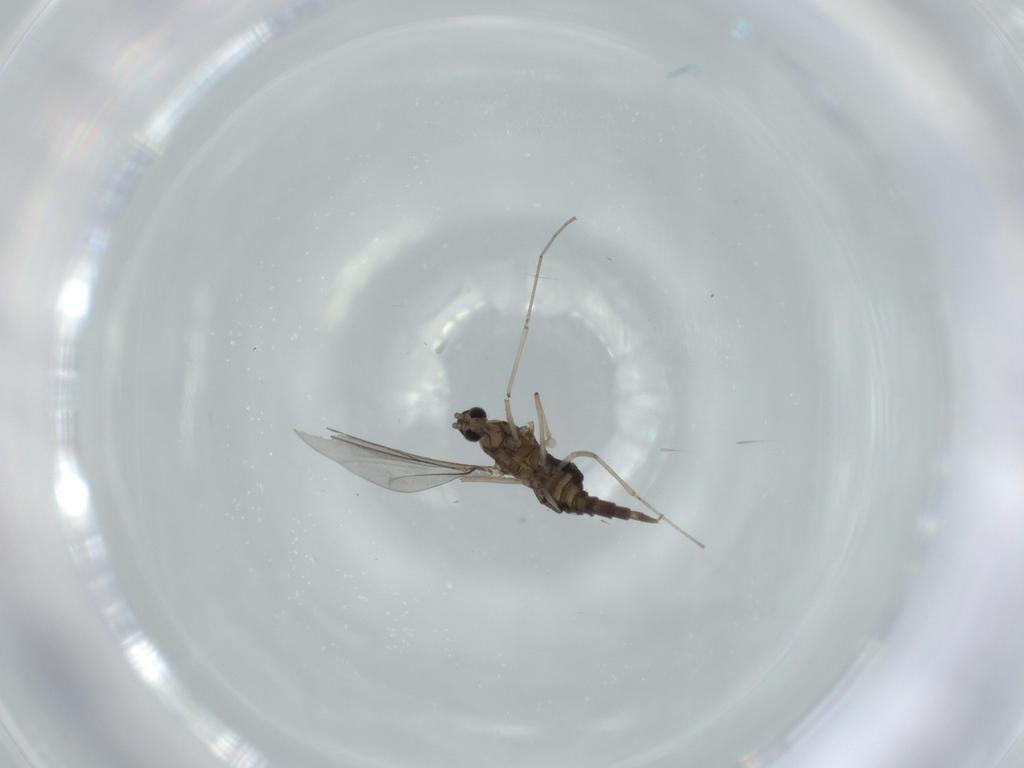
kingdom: Animalia
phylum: Arthropoda
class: Insecta
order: Diptera
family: Cecidomyiidae
